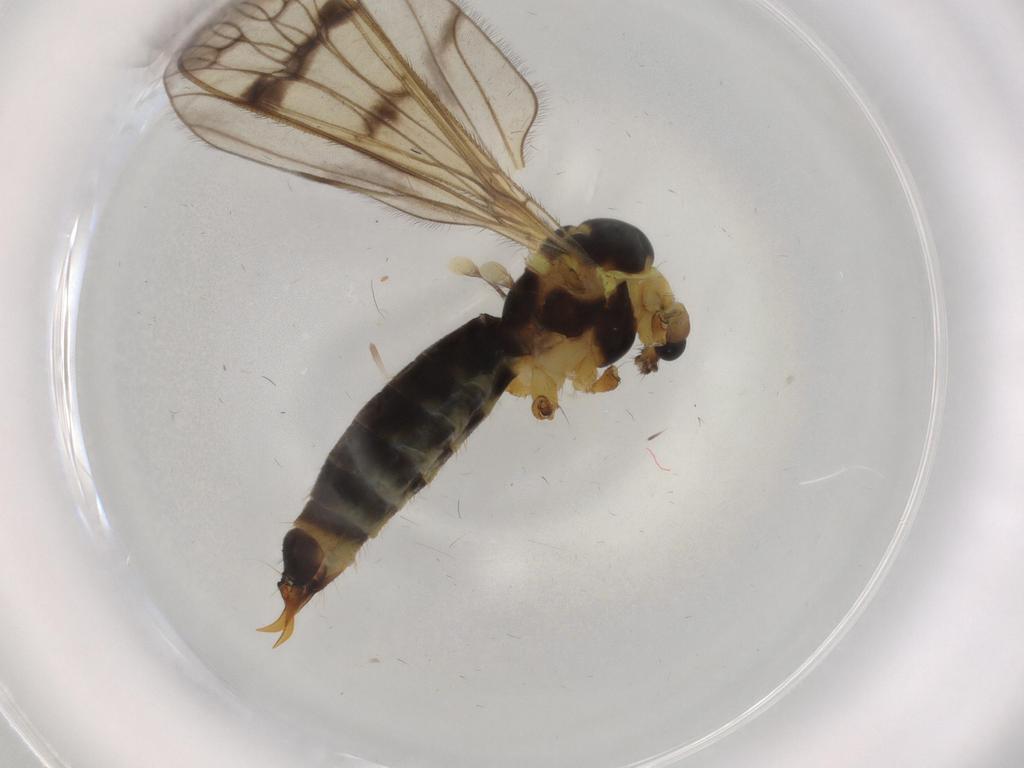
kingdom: Animalia
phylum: Arthropoda
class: Insecta
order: Diptera
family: Limoniidae
